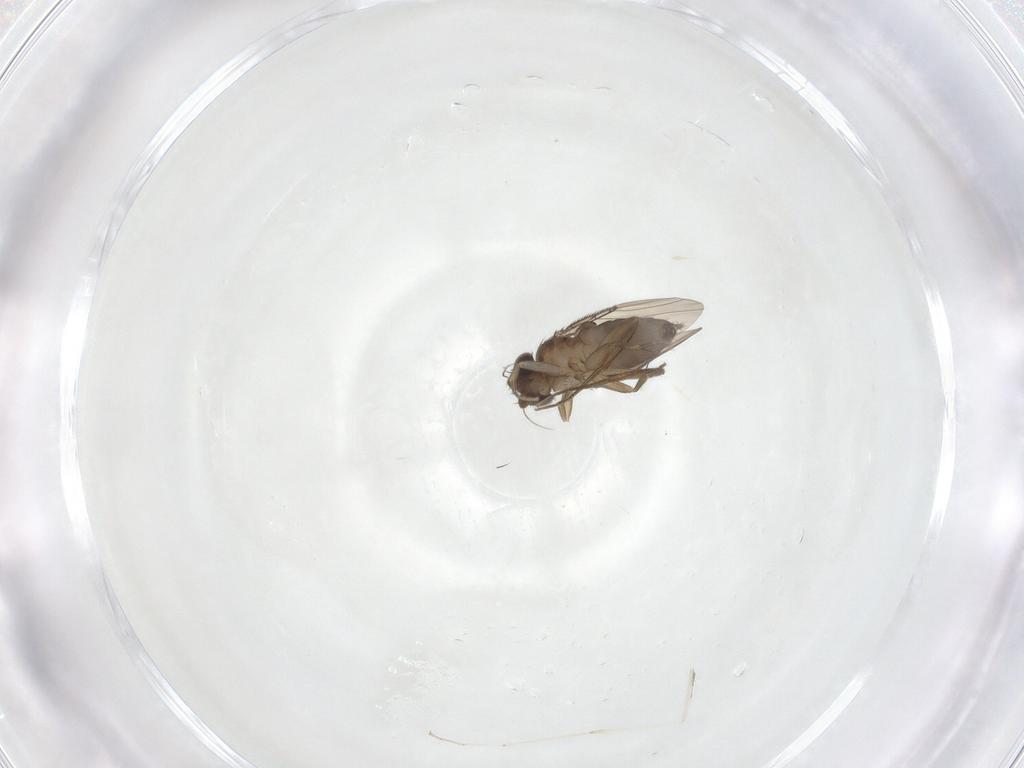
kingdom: Animalia
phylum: Arthropoda
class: Insecta
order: Diptera
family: Phoridae
